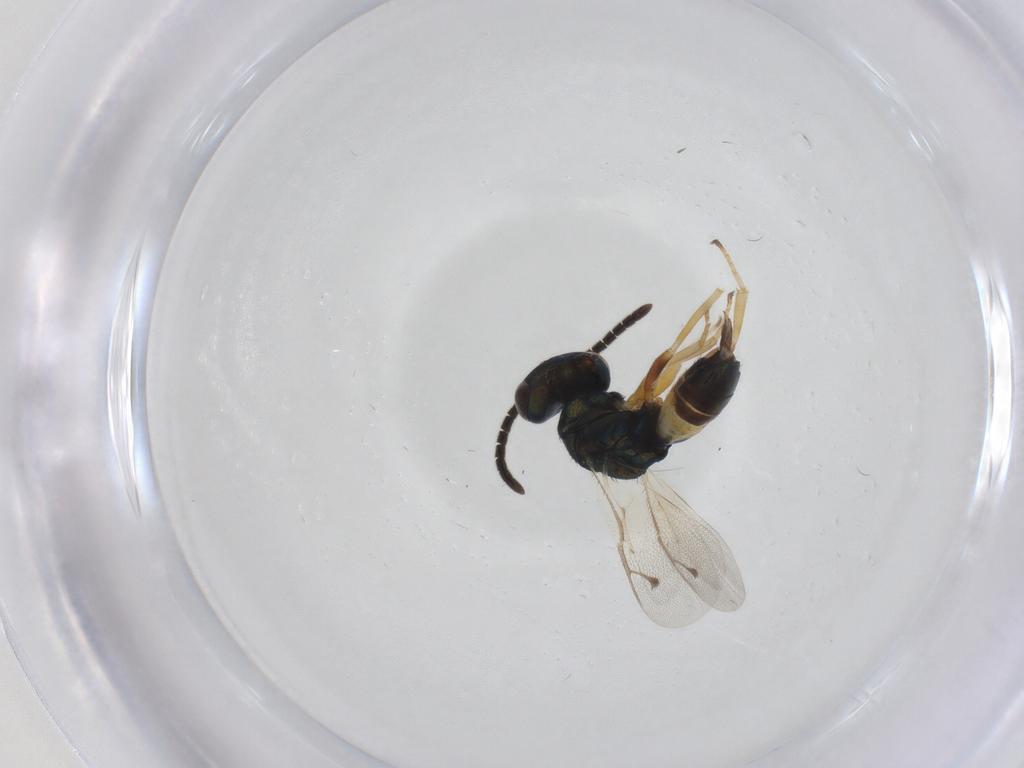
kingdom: Animalia
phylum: Arthropoda
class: Insecta
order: Hymenoptera
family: Pteromalidae
